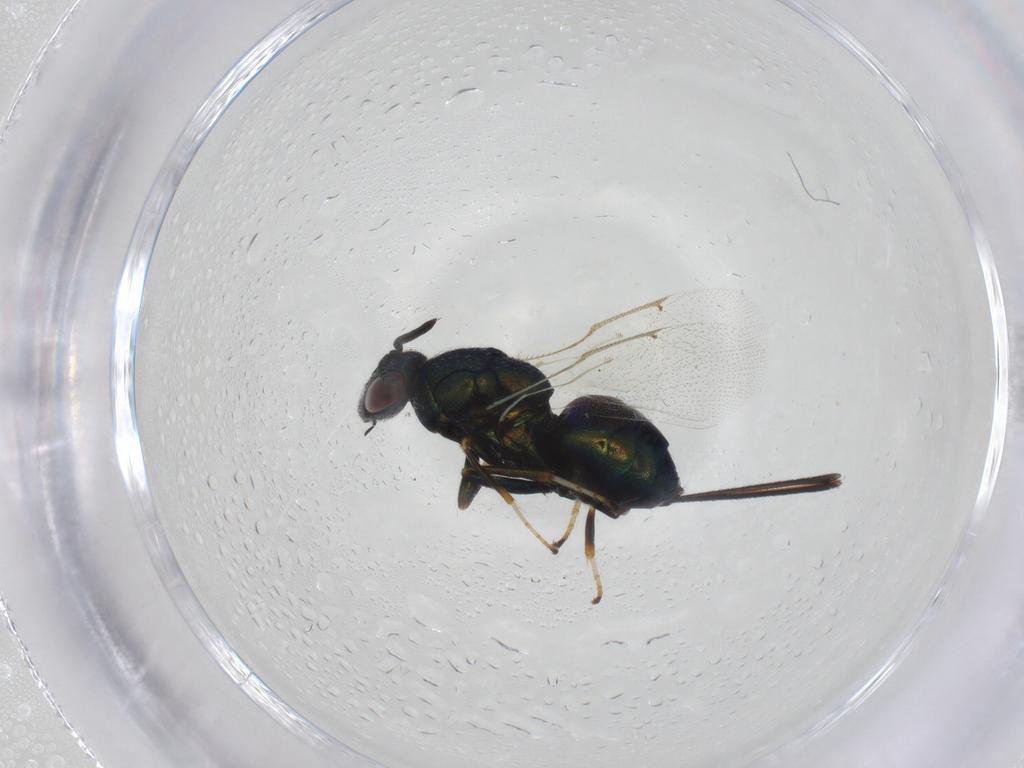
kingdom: Animalia
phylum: Arthropoda
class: Insecta
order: Hymenoptera
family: Torymidae
